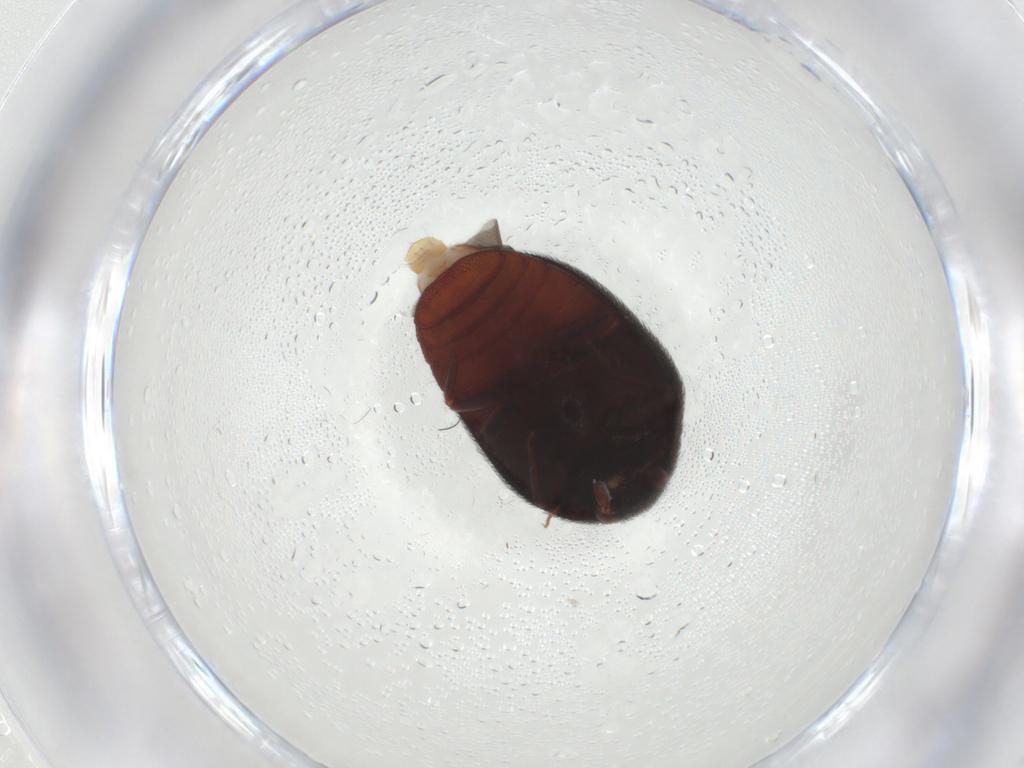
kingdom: Animalia
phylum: Arthropoda
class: Insecta
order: Coleoptera
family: Dermestidae
